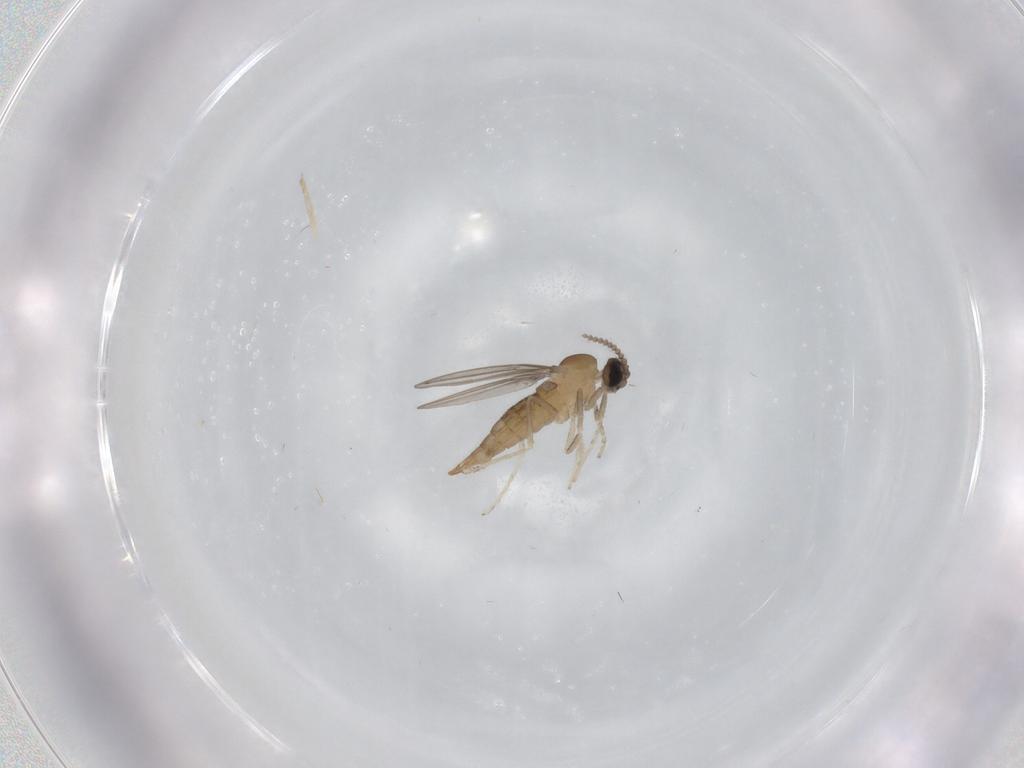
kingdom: Animalia
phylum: Arthropoda
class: Insecta
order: Diptera
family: Cecidomyiidae
